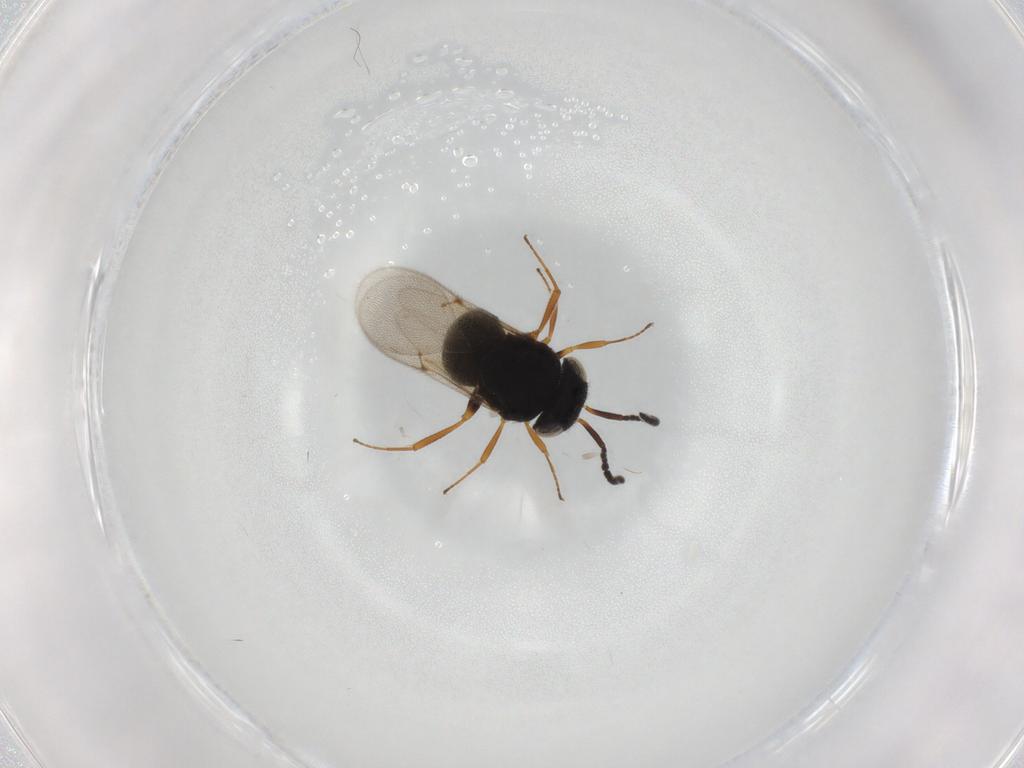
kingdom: Animalia
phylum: Arthropoda
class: Insecta
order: Hymenoptera
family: Scelionidae
